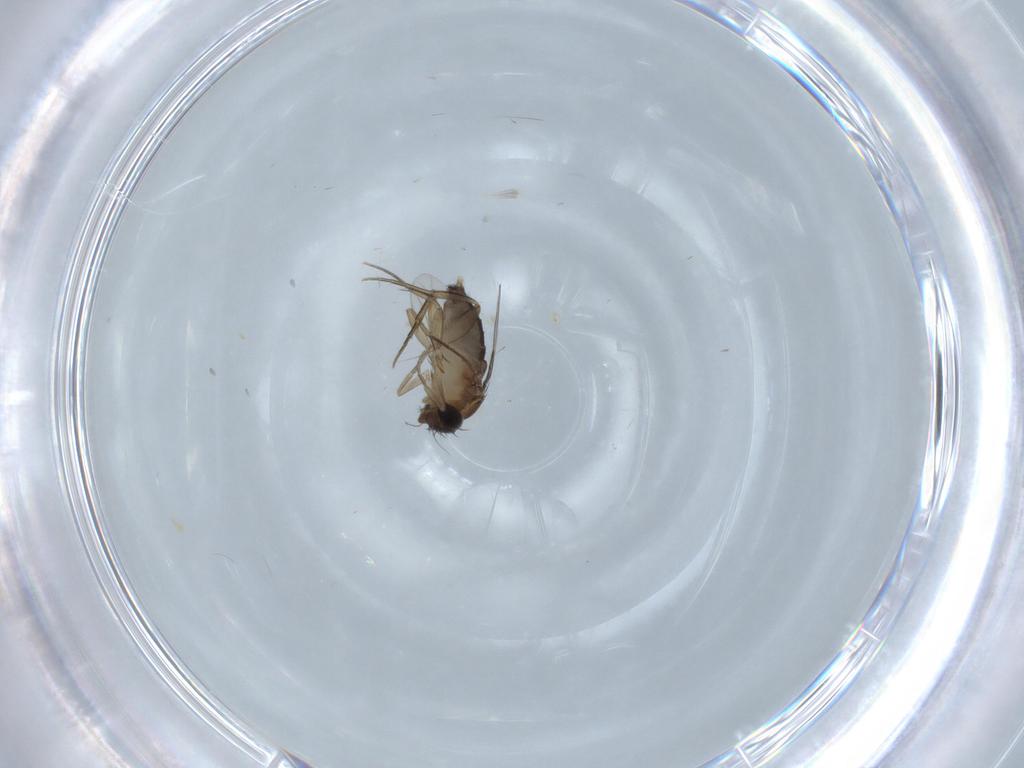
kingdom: Animalia
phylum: Arthropoda
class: Insecta
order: Diptera
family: Phoridae
